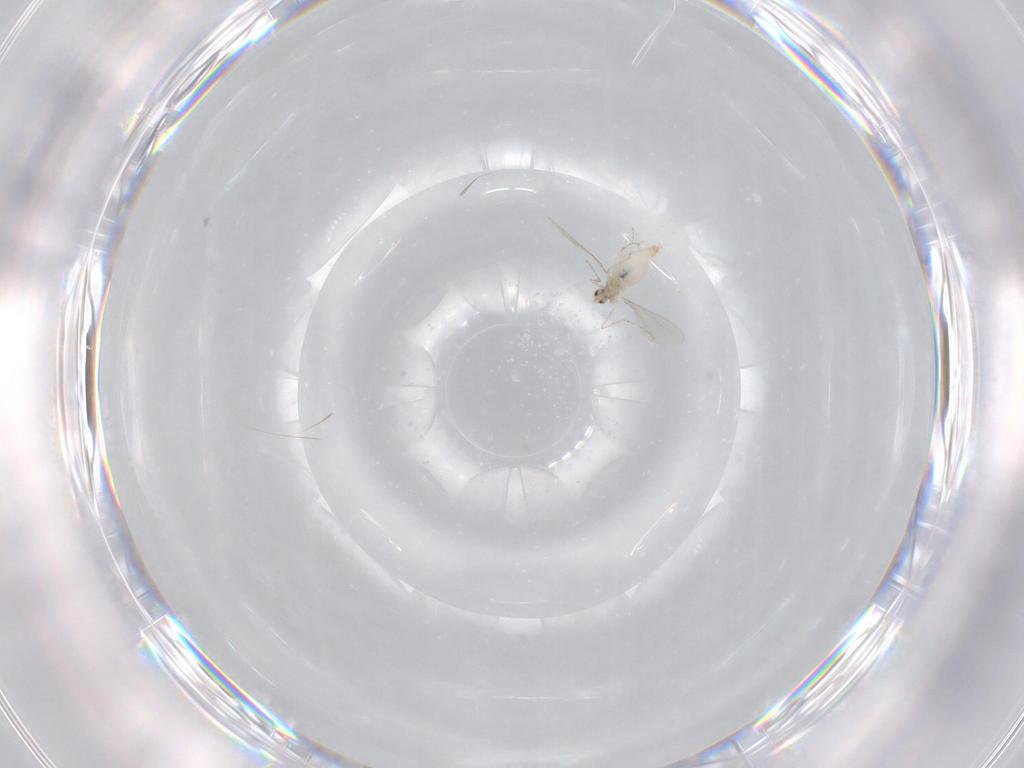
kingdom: Animalia
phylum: Arthropoda
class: Insecta
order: Diptera
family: Cecidomyiidae
